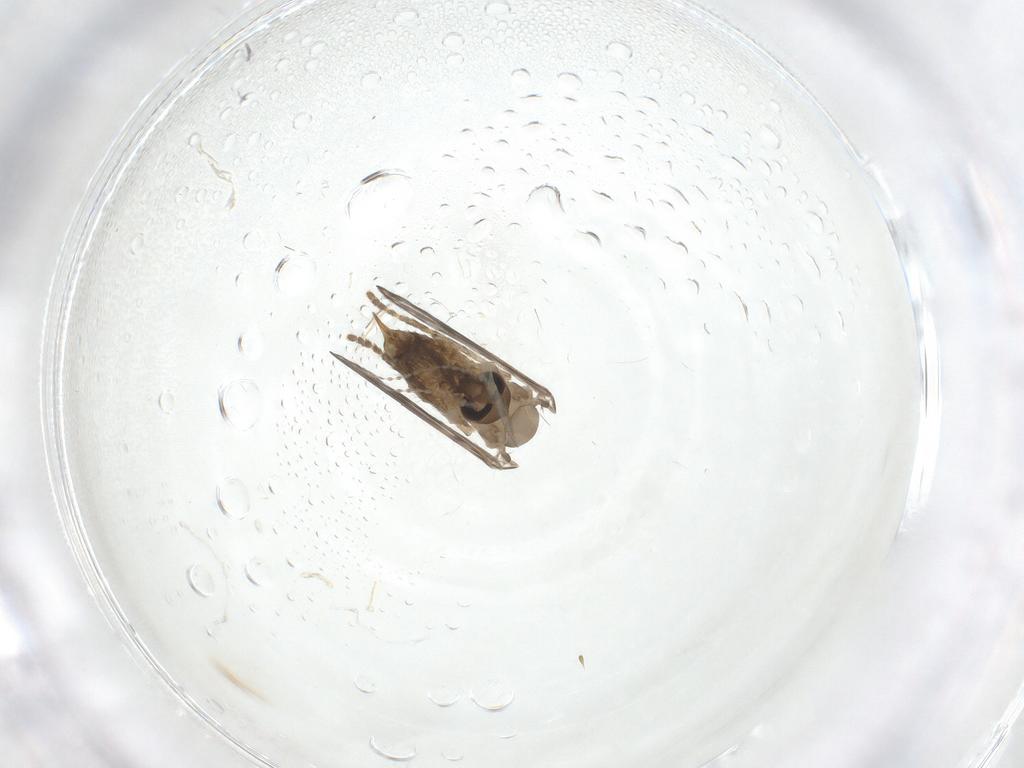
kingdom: Animalia
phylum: Arthropoda
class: Insecta
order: Diptera
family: Psychodidae
